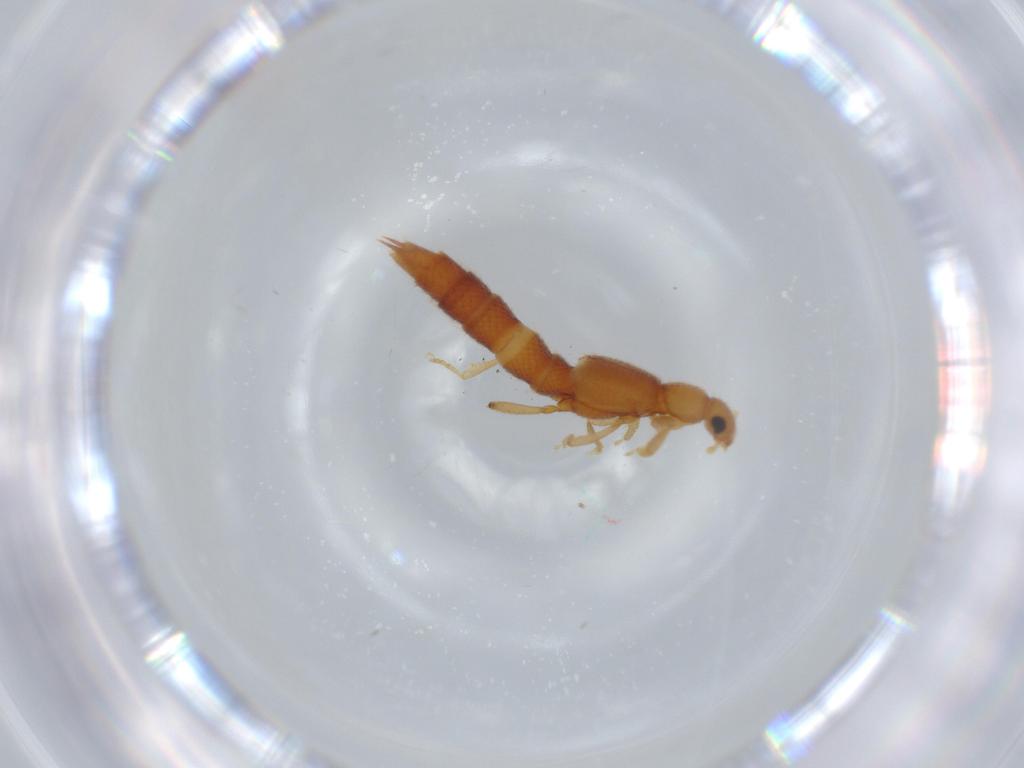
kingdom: Animalia
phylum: Arthropoda
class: Insecta
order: Coleoptera
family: Staphylinidae
